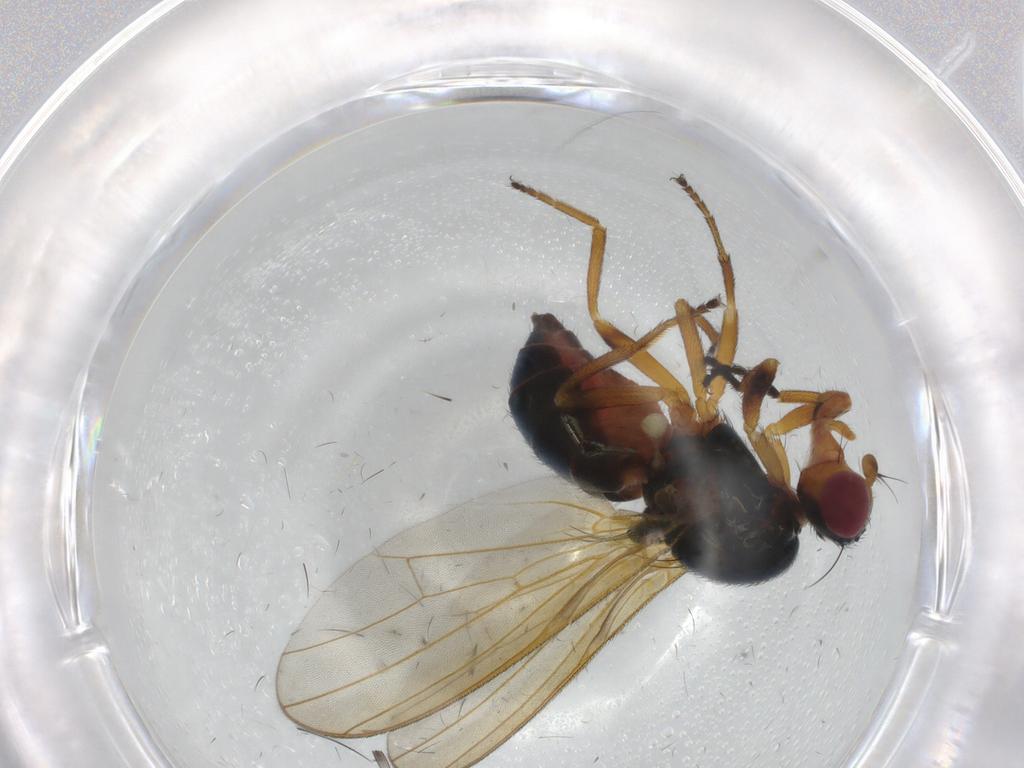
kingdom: Animalia
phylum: Arthropoda
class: Insecta
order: Diptera
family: Piophilidae
